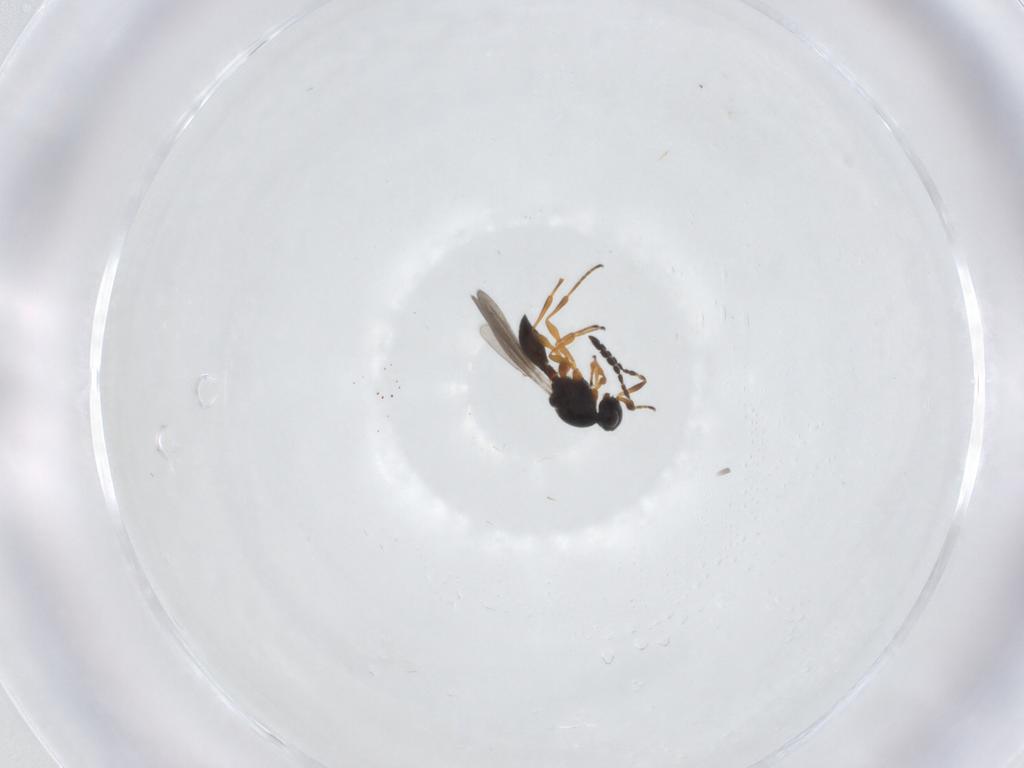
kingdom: Animalia
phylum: Arthropoda
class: Insecta
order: Hymenoptera
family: Platygastridae
